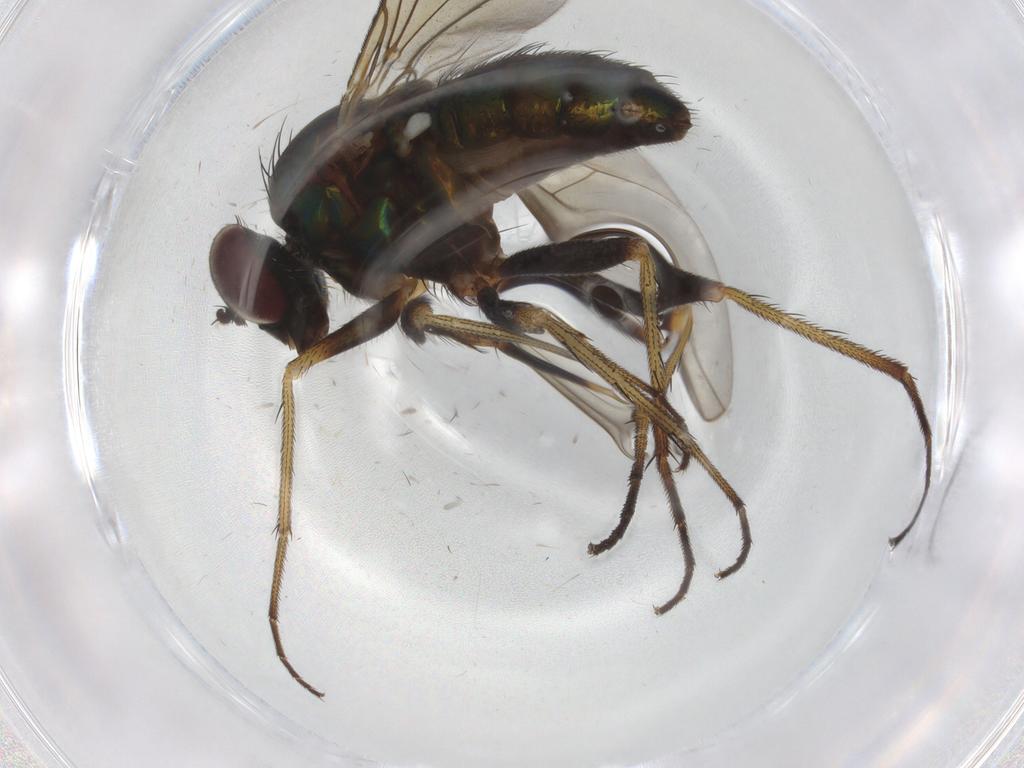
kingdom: Animalia
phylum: Arthropoda
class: Insecta
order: Diptera
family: Dolichopodidae
